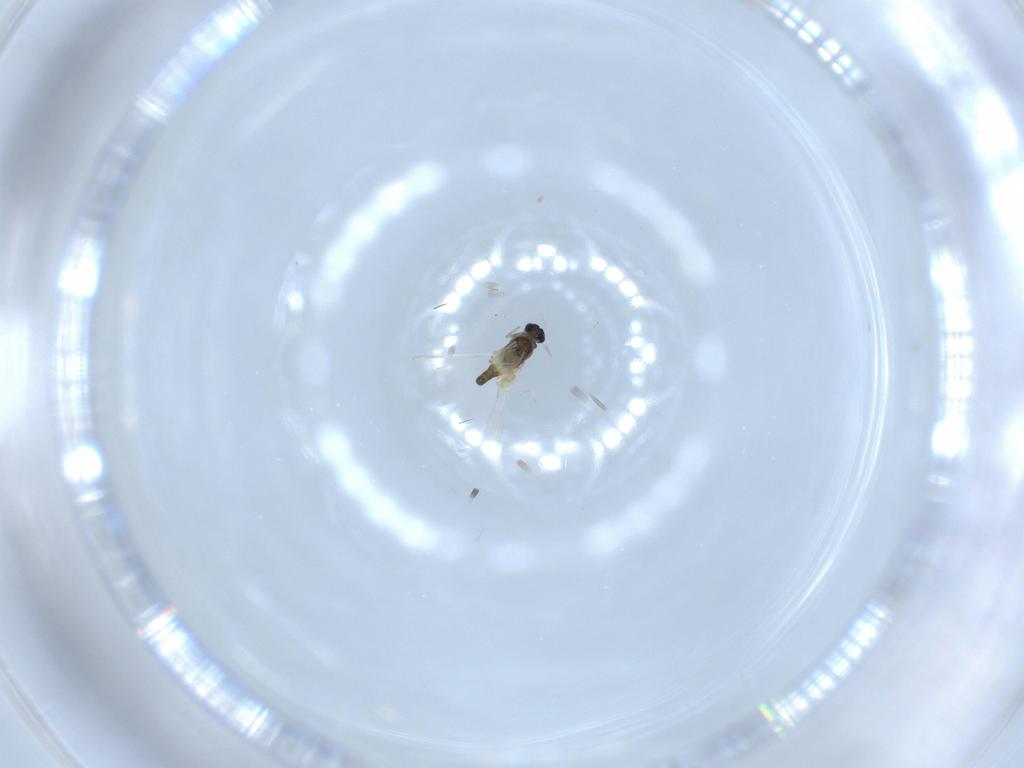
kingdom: Animalia
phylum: Arthropoda
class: Insecta
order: Diptera
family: Chironomidae
